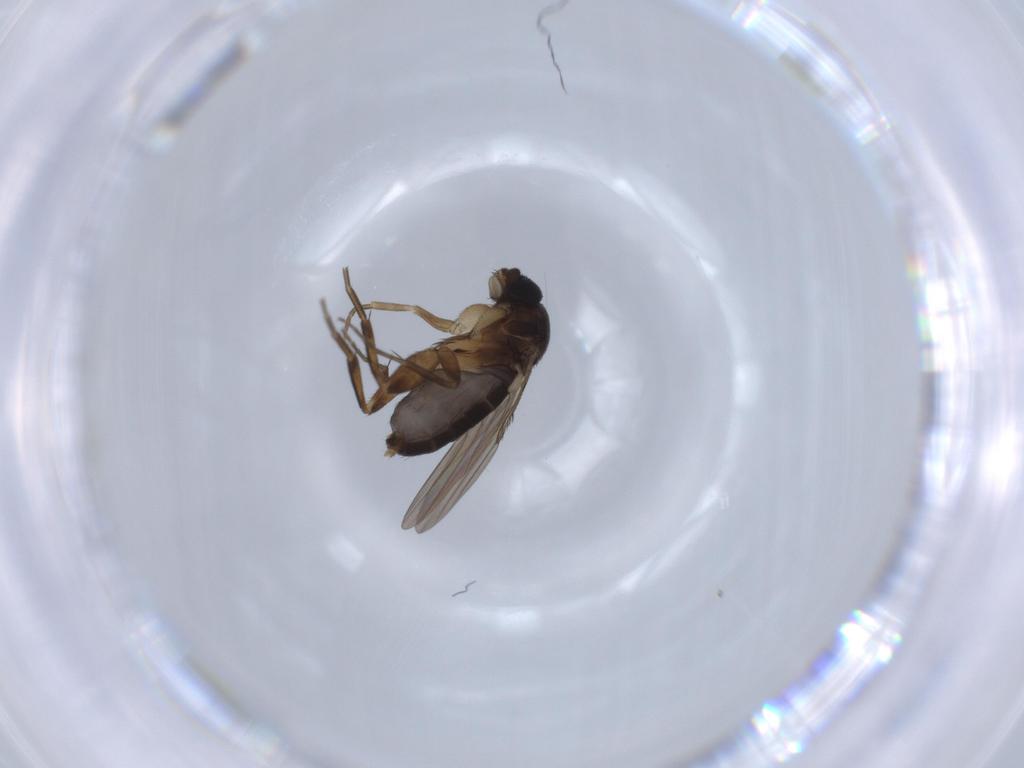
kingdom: Animalia
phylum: Arthropoda
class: Insecta
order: Diptera
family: Phoridae
